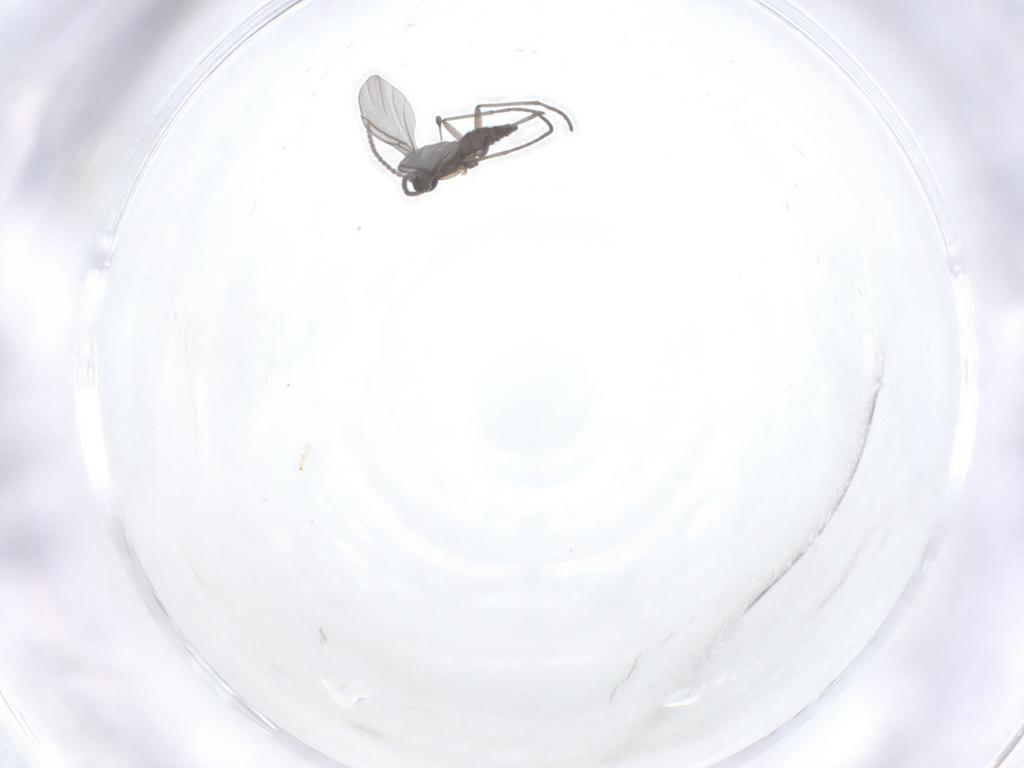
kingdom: Animalia
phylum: Arthropoda
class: Insecta
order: Diptera
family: Sciaridae
